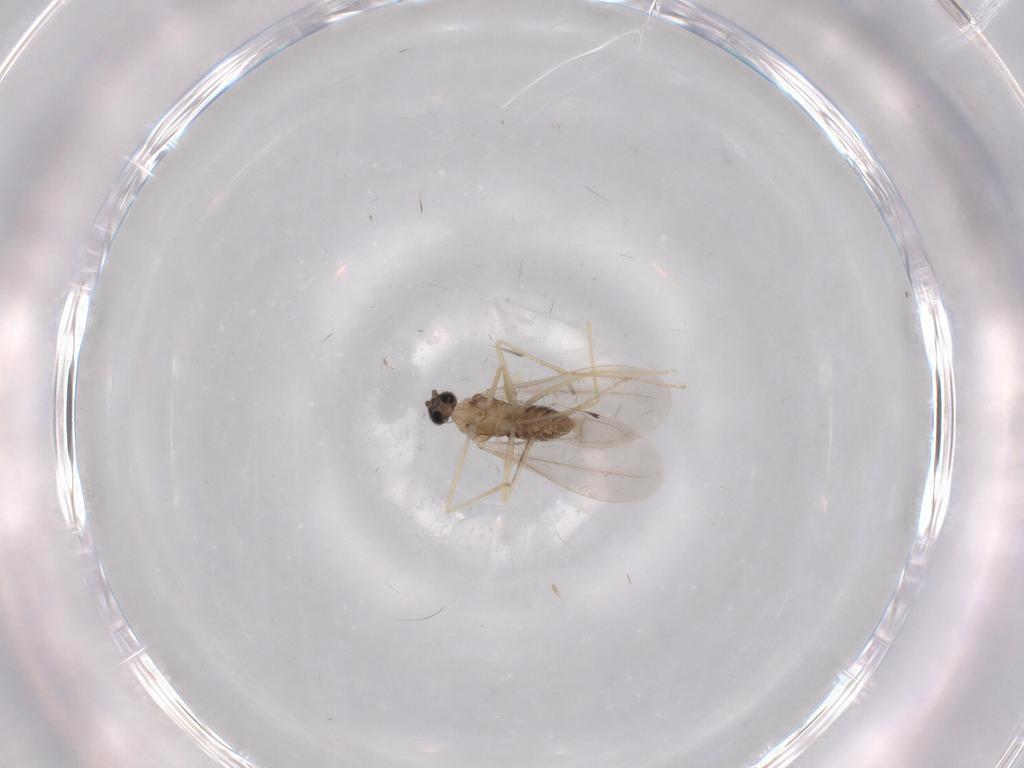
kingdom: Animalia
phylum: Arthropoda
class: Insecta
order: Diptera
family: Cecidomyiidae
